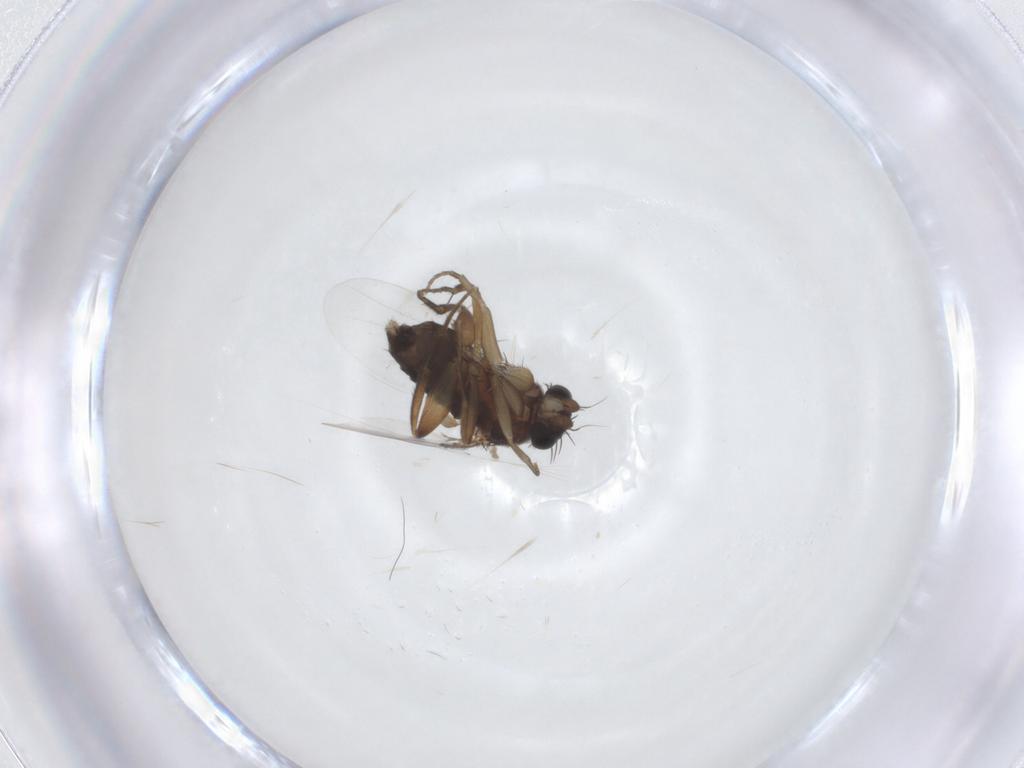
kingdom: Animalia
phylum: Arthropoda
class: Insecta
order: Diptera
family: Phoridae
